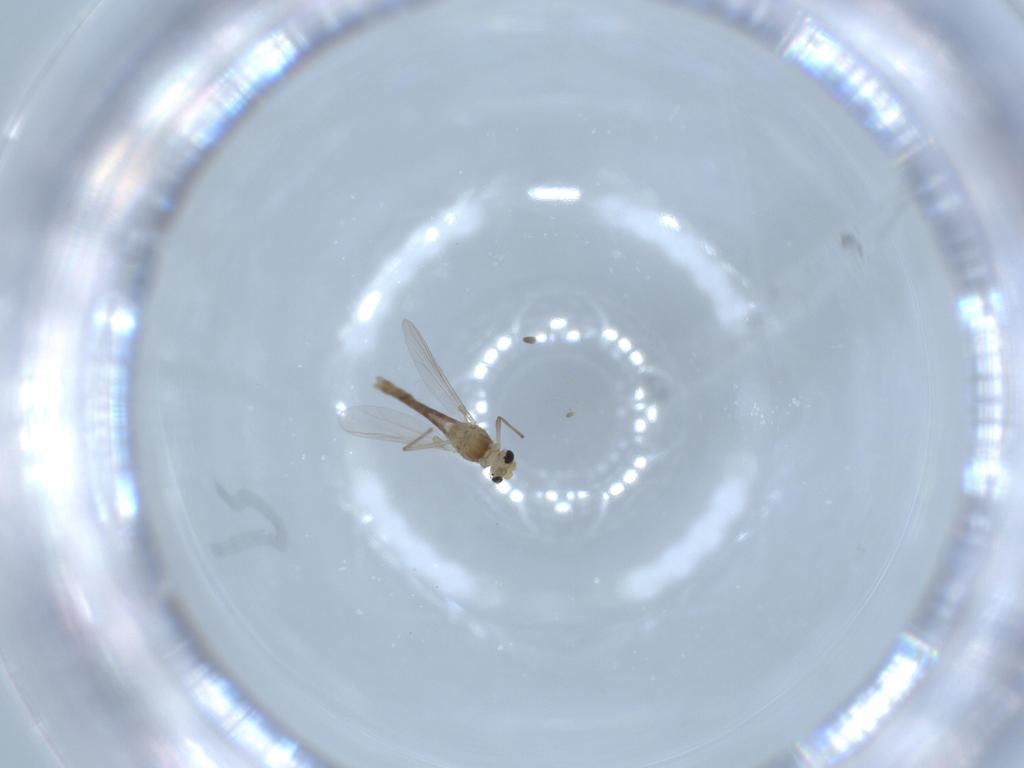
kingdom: Animalia
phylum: Arthropoda
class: Insecta
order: Diptera
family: Cecidomyiidae
